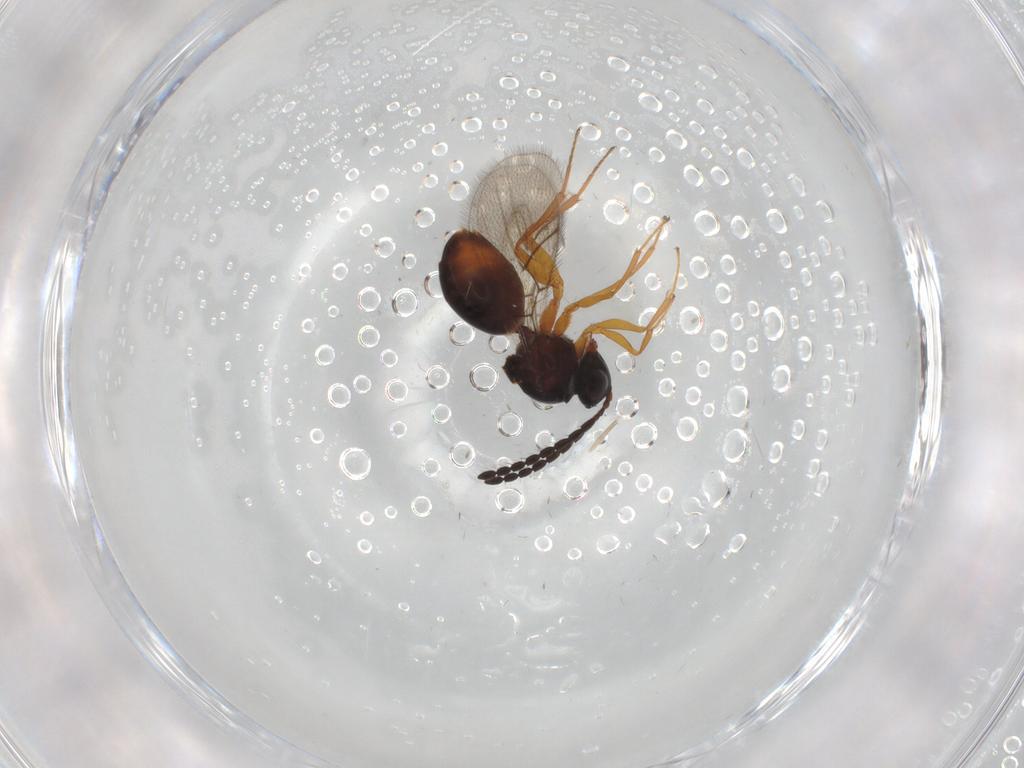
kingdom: Animalia
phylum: Arthropoda
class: Insecta
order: Hymenoptera
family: Figitidae
